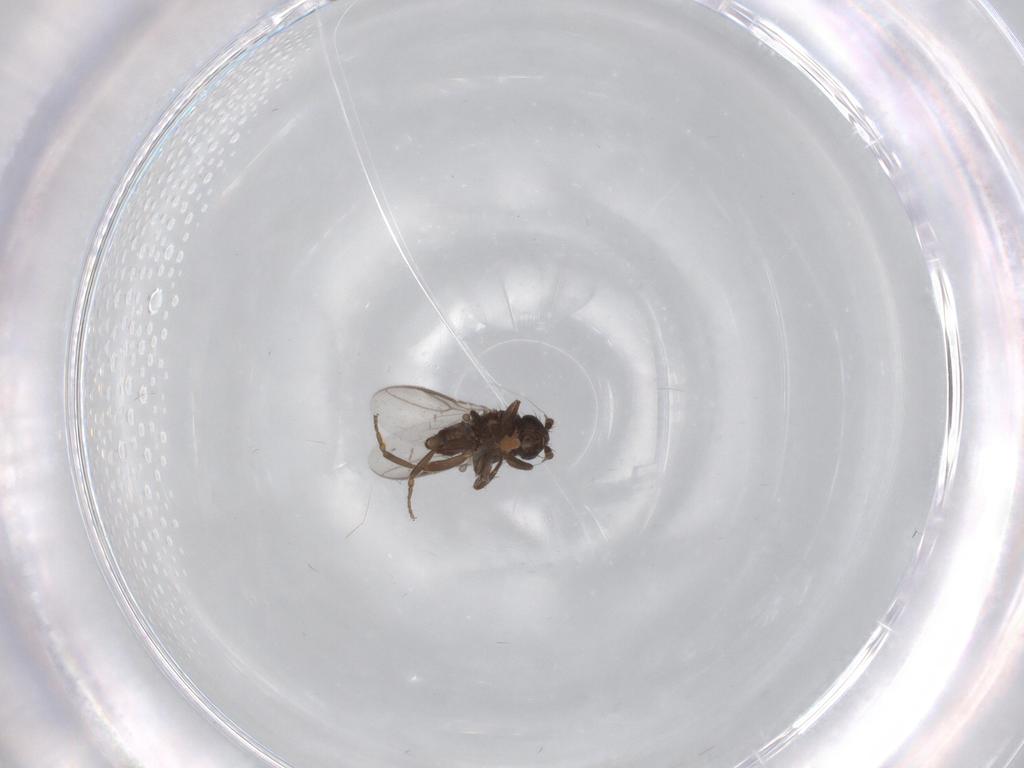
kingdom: Animalia
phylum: Arthropoda
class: Insecta
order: Diptera
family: Sphaeroceridae
